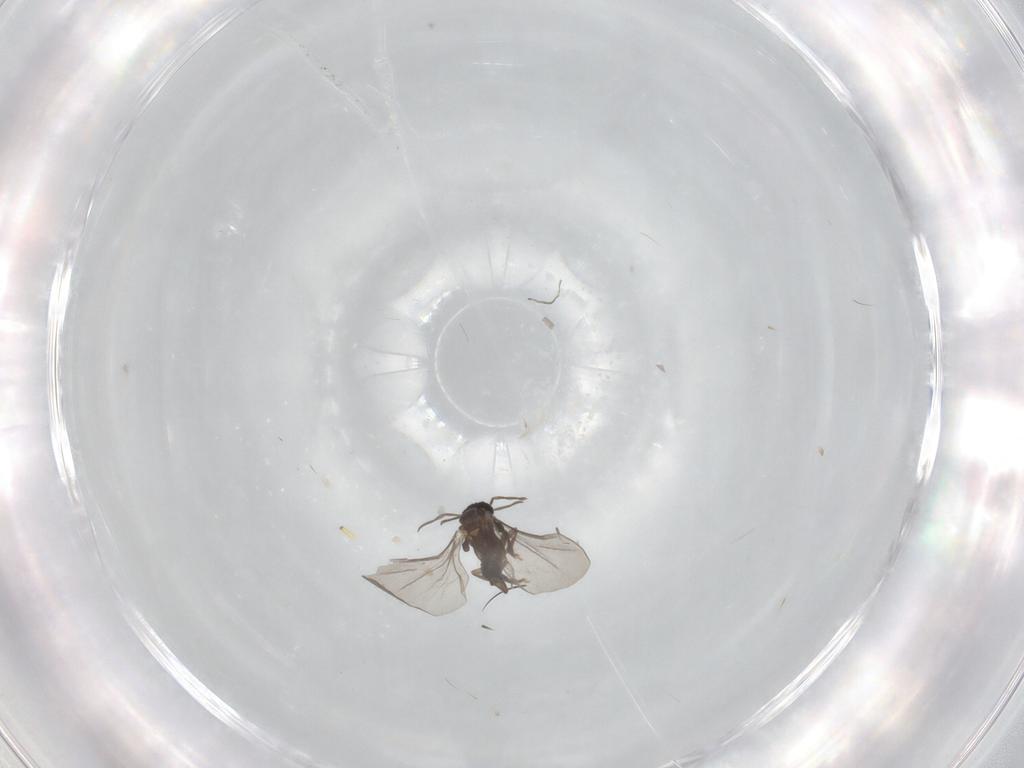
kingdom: Animalia
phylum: Arthropoda
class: Insecta
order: Strepsiptera
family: Elenchidae
